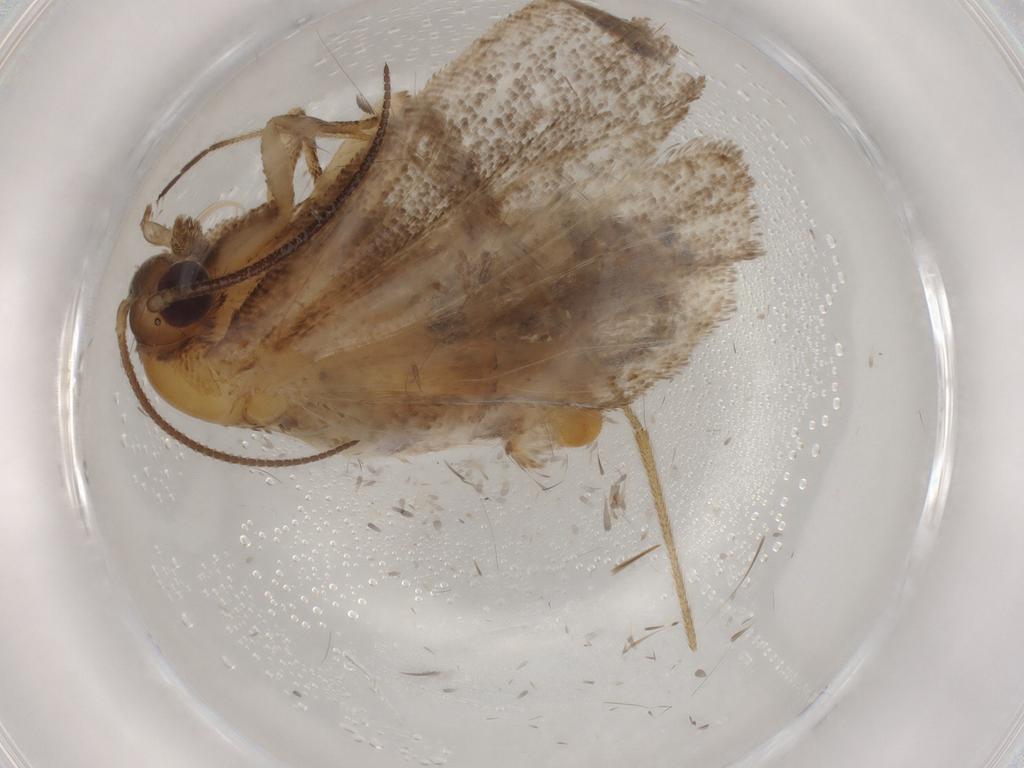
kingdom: Animalia
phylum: Arthropoda
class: Insecta
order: Lepidoptera
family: Tortricidae
